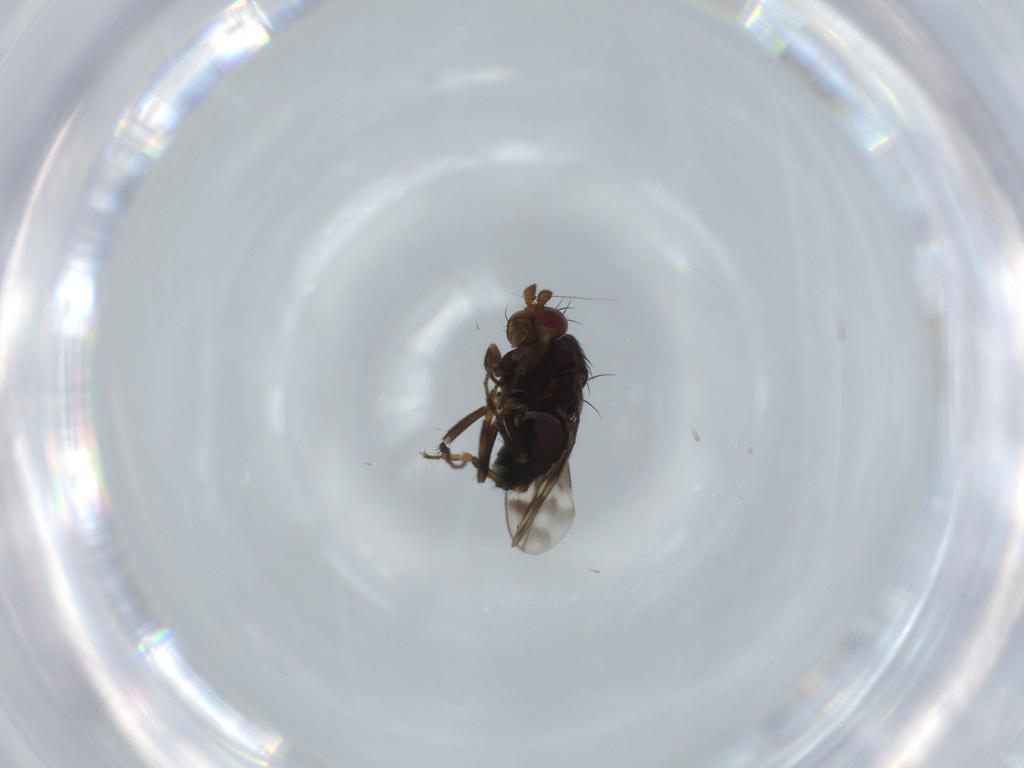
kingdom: Animalia
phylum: Arthropoda
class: Insecta
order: Diptera
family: Sphaeroceridae
